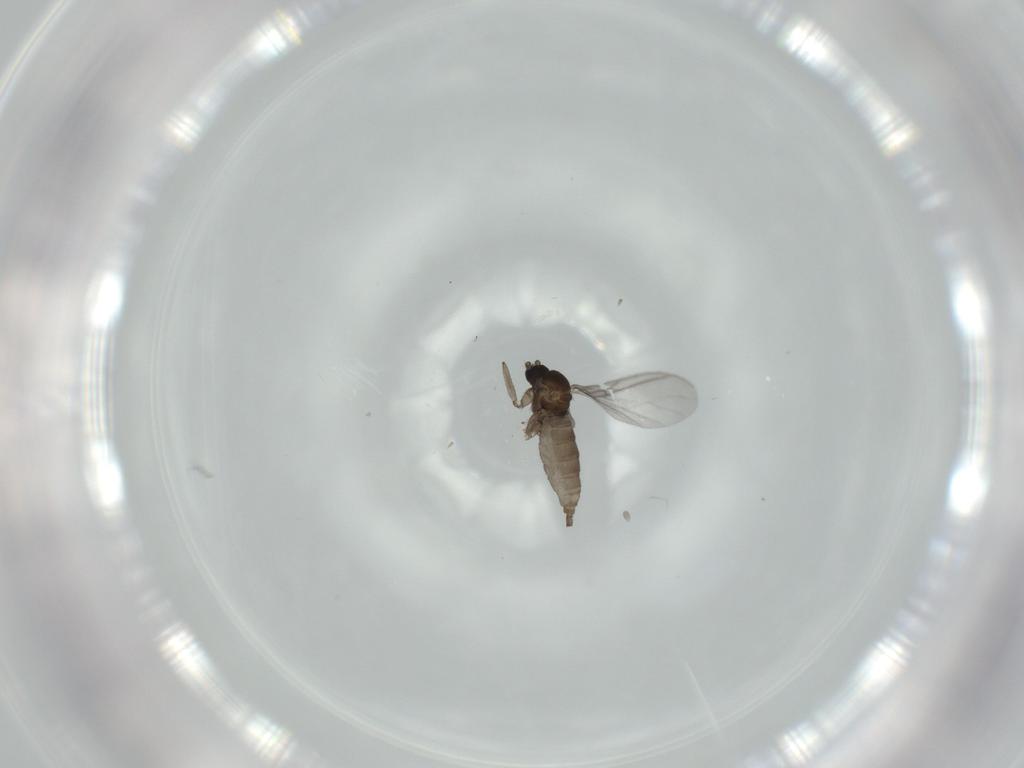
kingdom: Animalia
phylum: Arthropoda
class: Insecta
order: Diptera
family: Sciaridae
